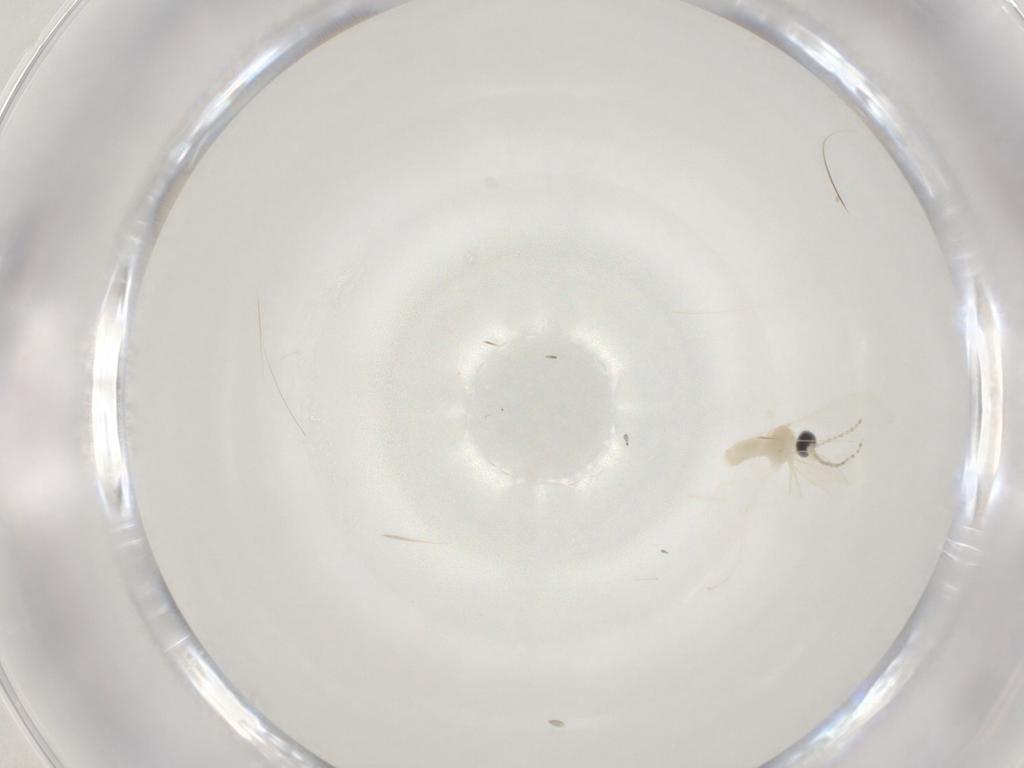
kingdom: Animalia
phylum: Arthropoda
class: Insecta
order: Diptera
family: Cecidomyiidae
